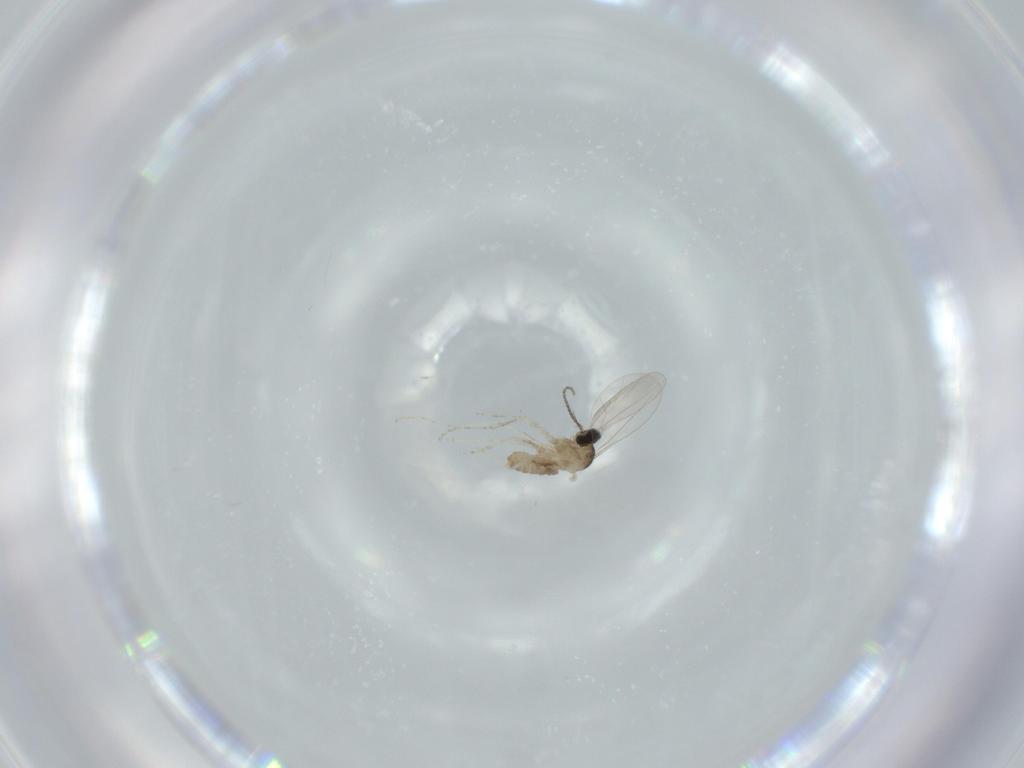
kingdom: Animalia
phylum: Arthropoda
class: Insecta
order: Diptera
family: Cecidomyiidae
